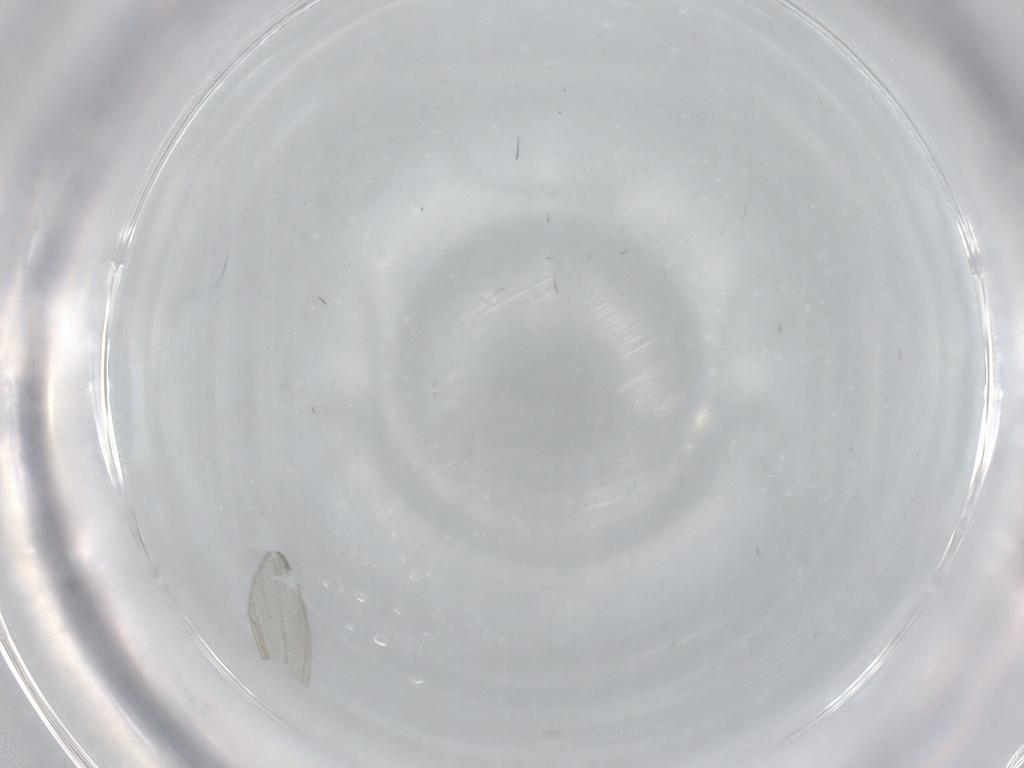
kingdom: Animalia
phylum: Arthropoda
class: Insecta
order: Diptera
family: Cecidomyiidae
